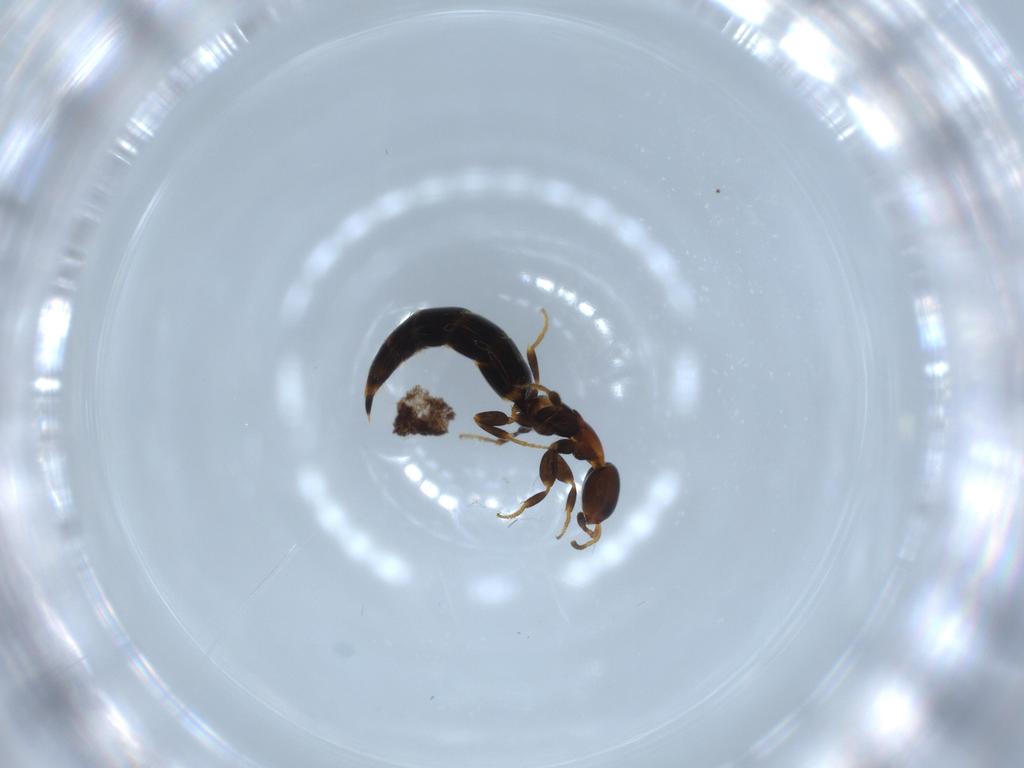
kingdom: Animalia
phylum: Arthropoda
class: Insecta
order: Hymenoptera
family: Bethylidae
